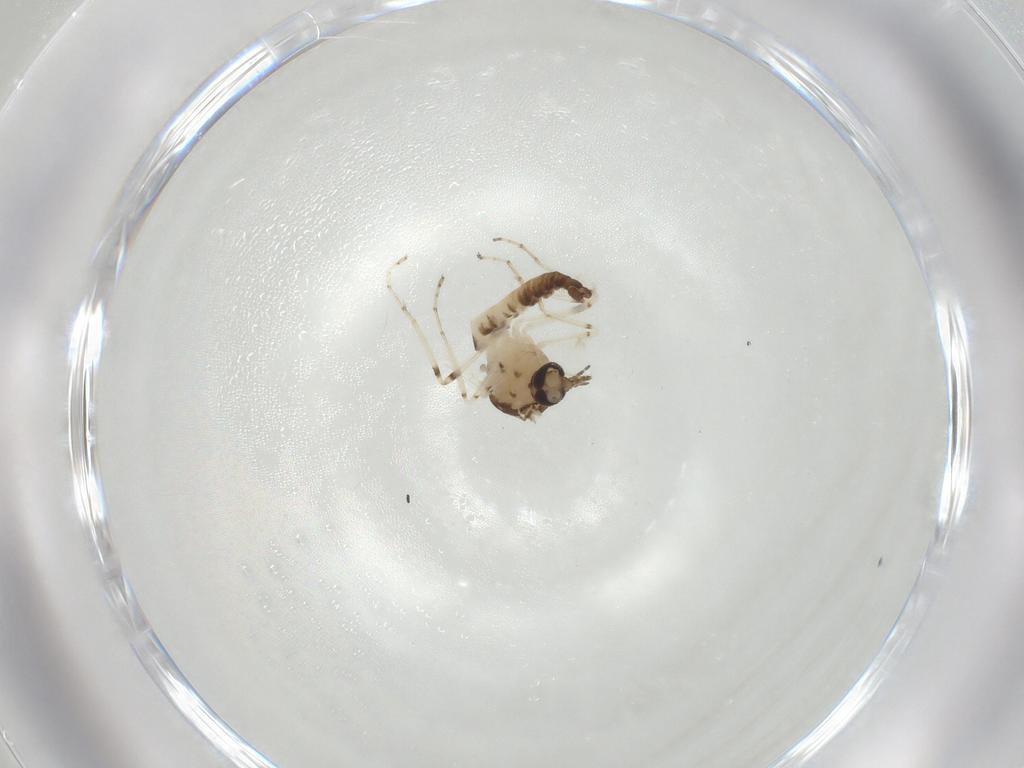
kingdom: Animalia
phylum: Arthropoda
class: Insecta
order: Diptera
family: Ceratopogonidae
